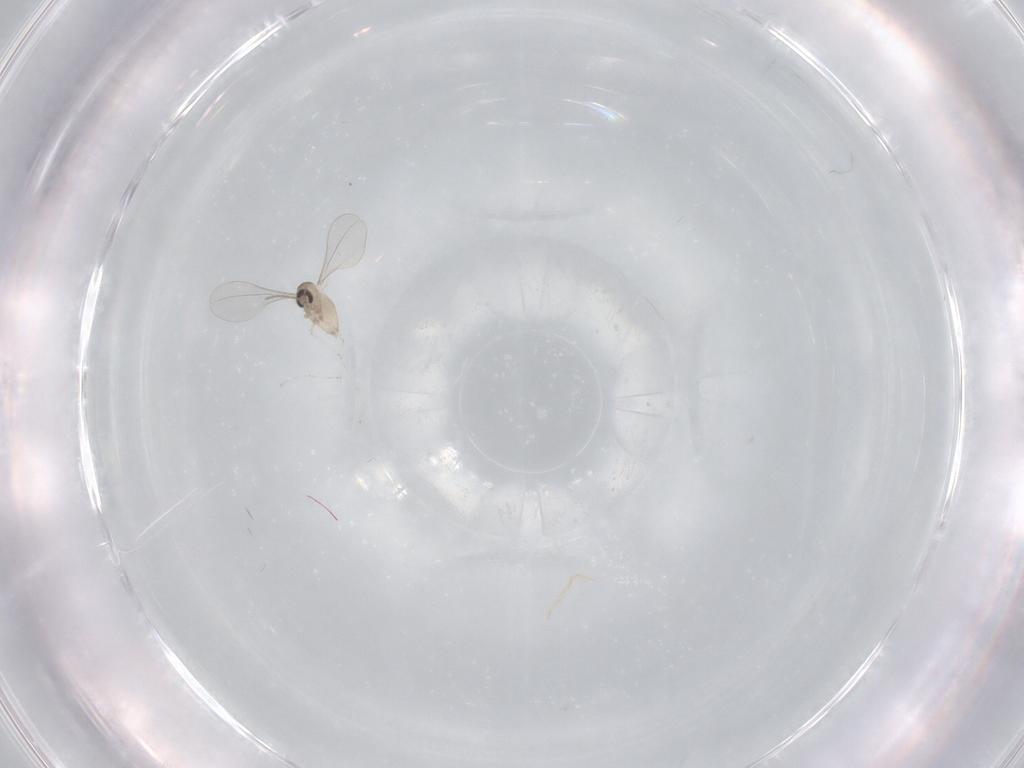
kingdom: Animalia
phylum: Arthropoda
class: Insecta
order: Diptera
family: Cecidomyiidae
